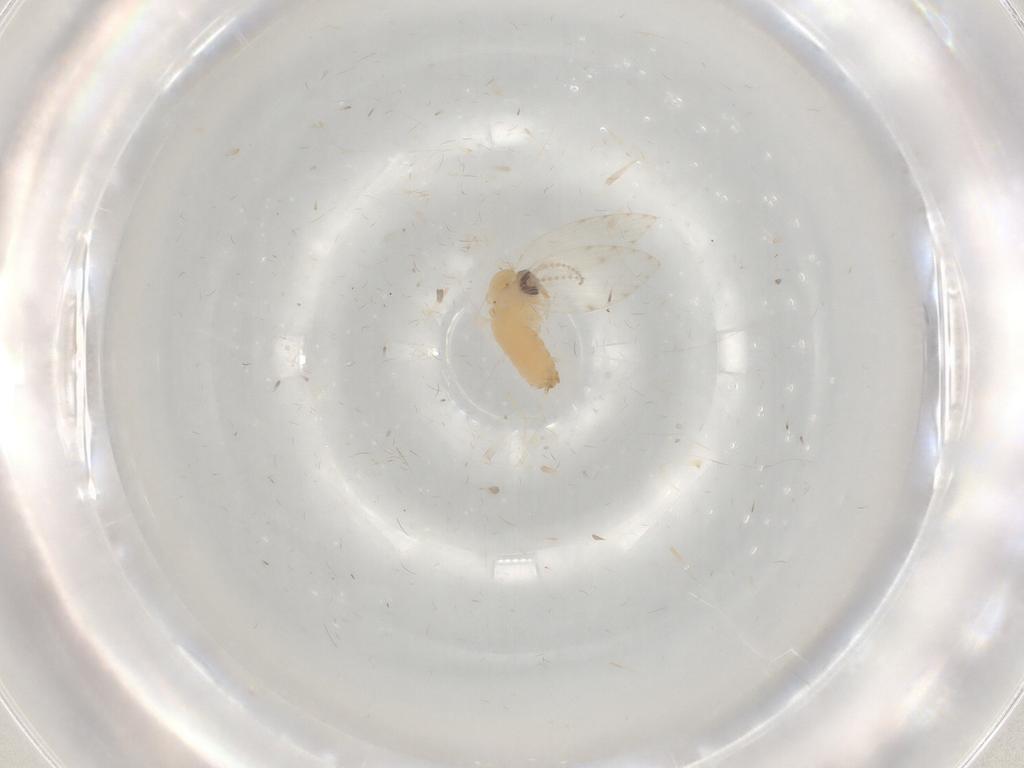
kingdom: Animalia
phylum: Arthropoda
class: Insecta
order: Diptera
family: Psychodidae
